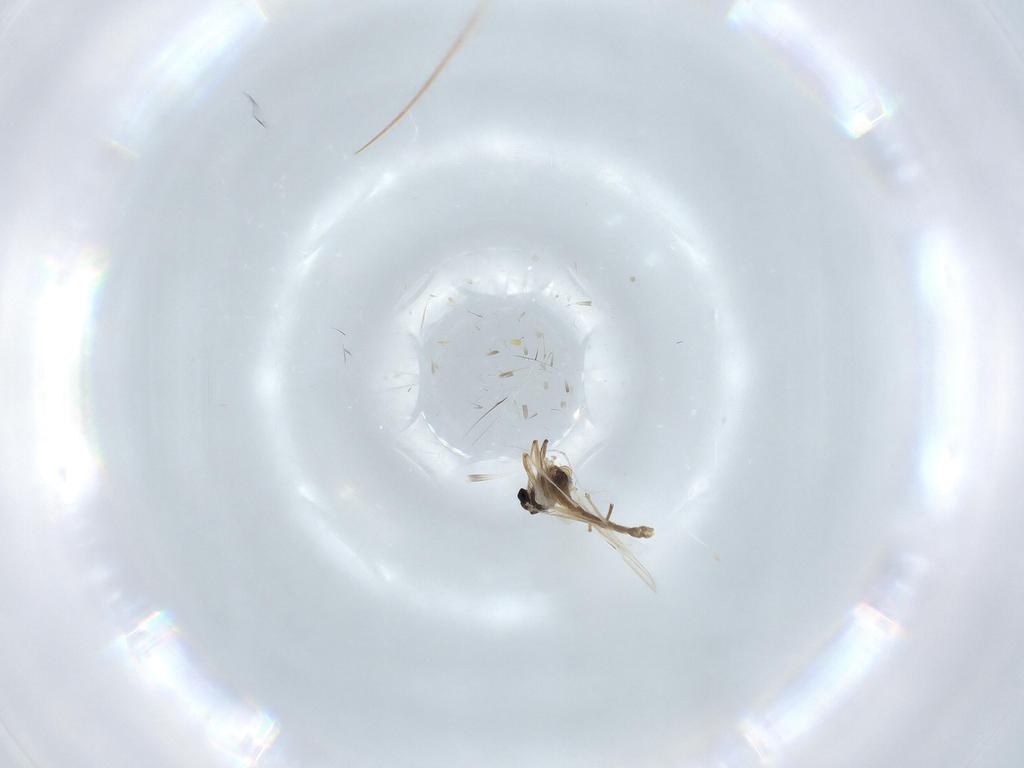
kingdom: Animalia
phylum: Arthropoda
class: Insecta
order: Diptera
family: Chironomidae
